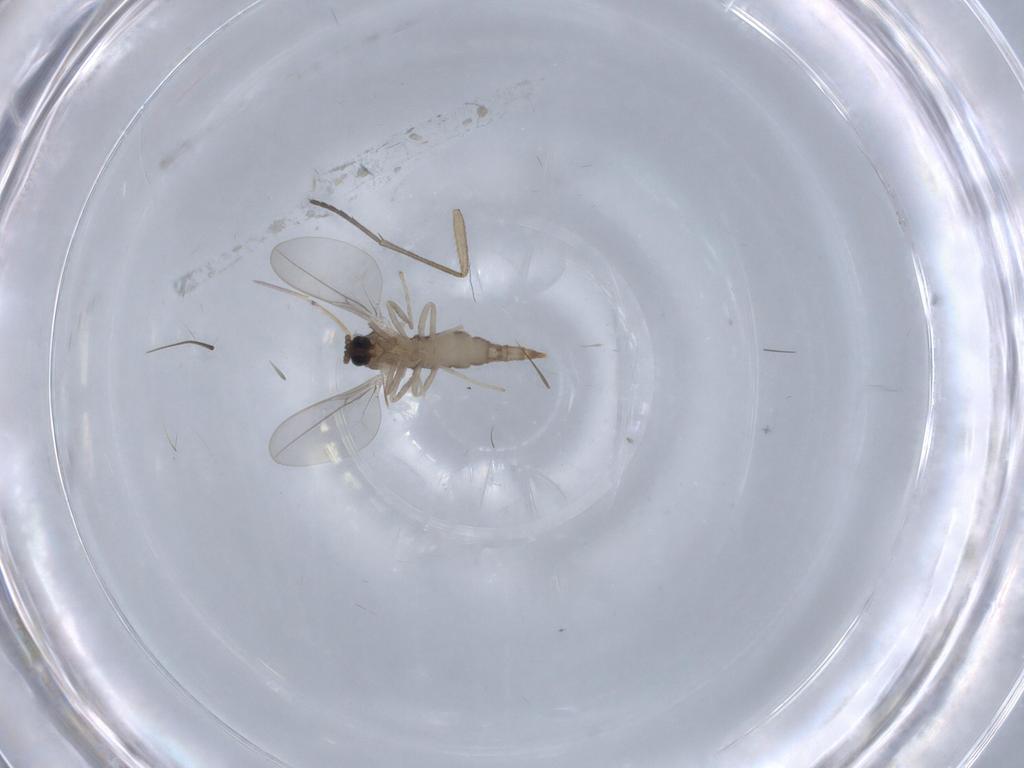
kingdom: Animalia
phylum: Arthropoda
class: Insecta
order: Diptera
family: Cecidomyiidae
